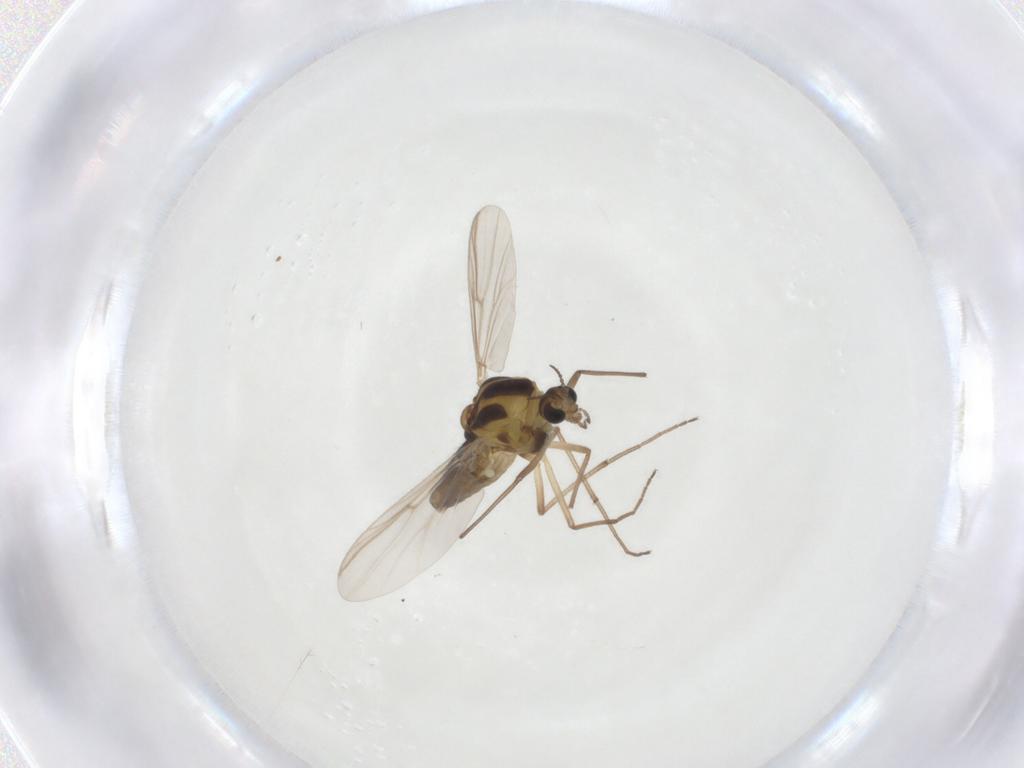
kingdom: Animalia
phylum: Arthropoda
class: Insecta
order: Diptera
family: Chironomidae
